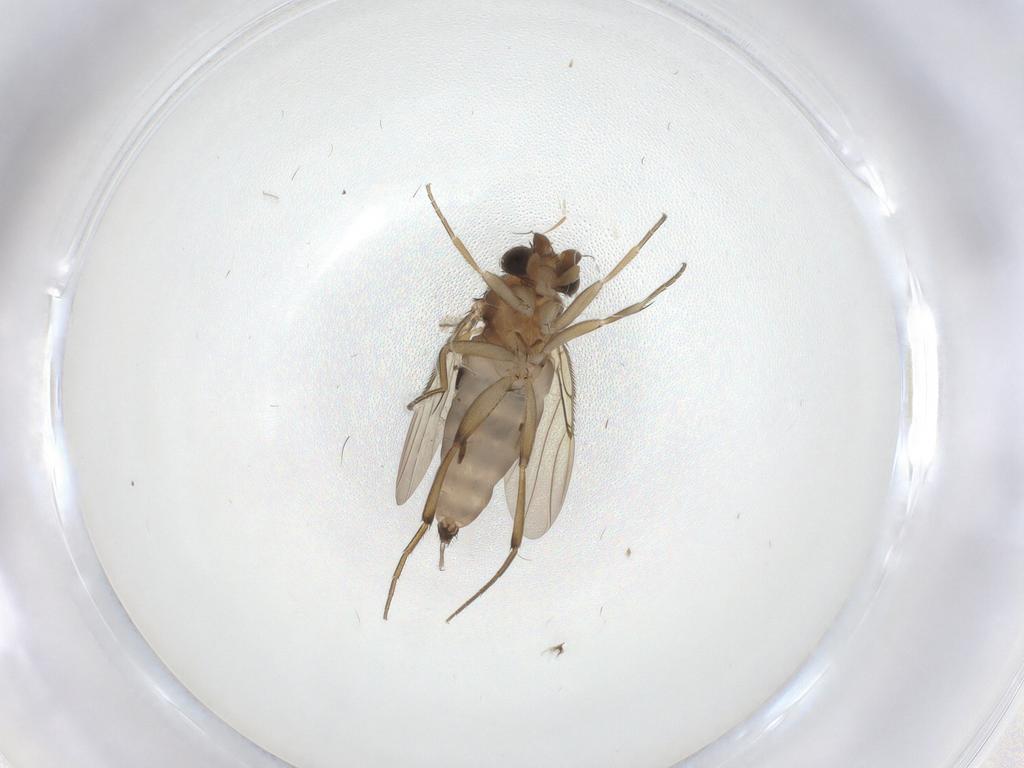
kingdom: Animalia
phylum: Arthropoda
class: Insecta
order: Diptera
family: Phoridae
